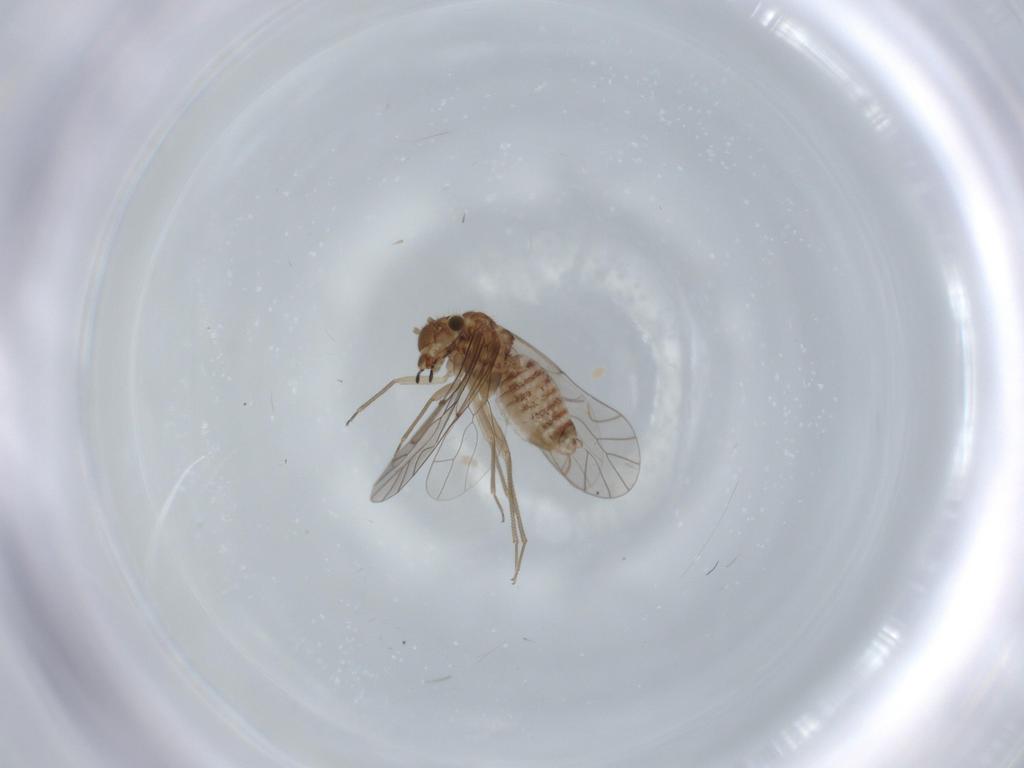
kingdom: Animalia
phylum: Arthropoda
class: Insecta
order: Psocodea
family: Lachesillidae
